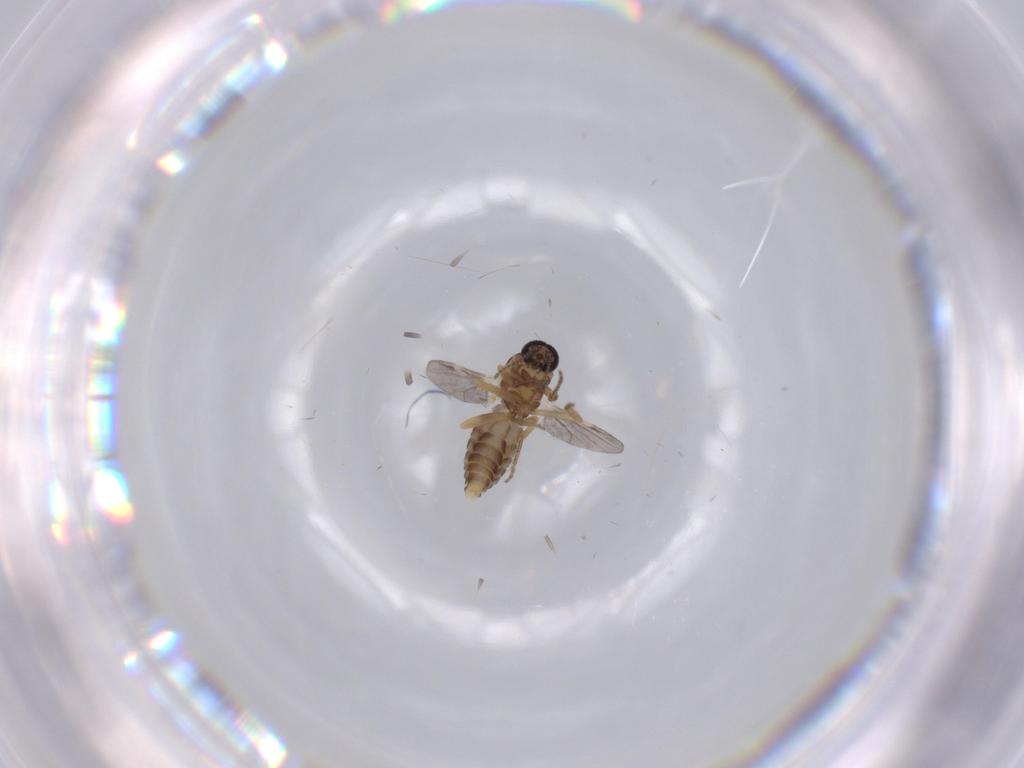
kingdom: Animalia
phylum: Arthropoda
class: Insecta
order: Diptera
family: Ceratopogonidae
